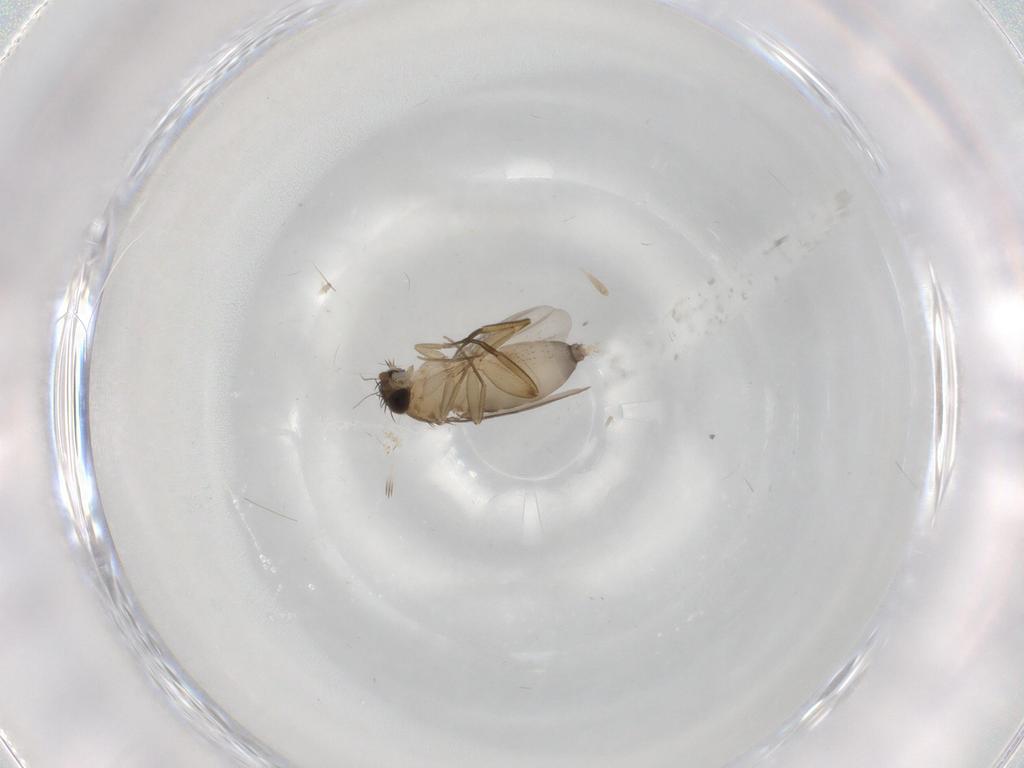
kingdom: Animalia
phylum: Arthropoda
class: Insecta
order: Diptera
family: Phoridae
